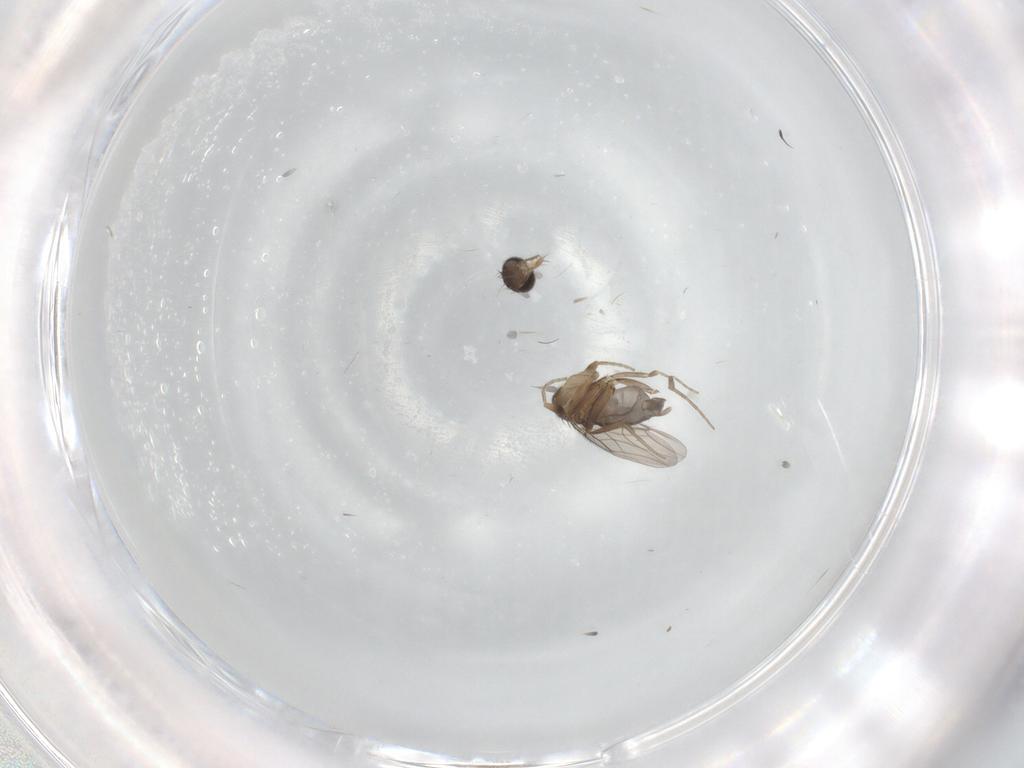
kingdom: Animalia
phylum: Arthropoda
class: Insecta
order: Diptera
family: Phoridae
